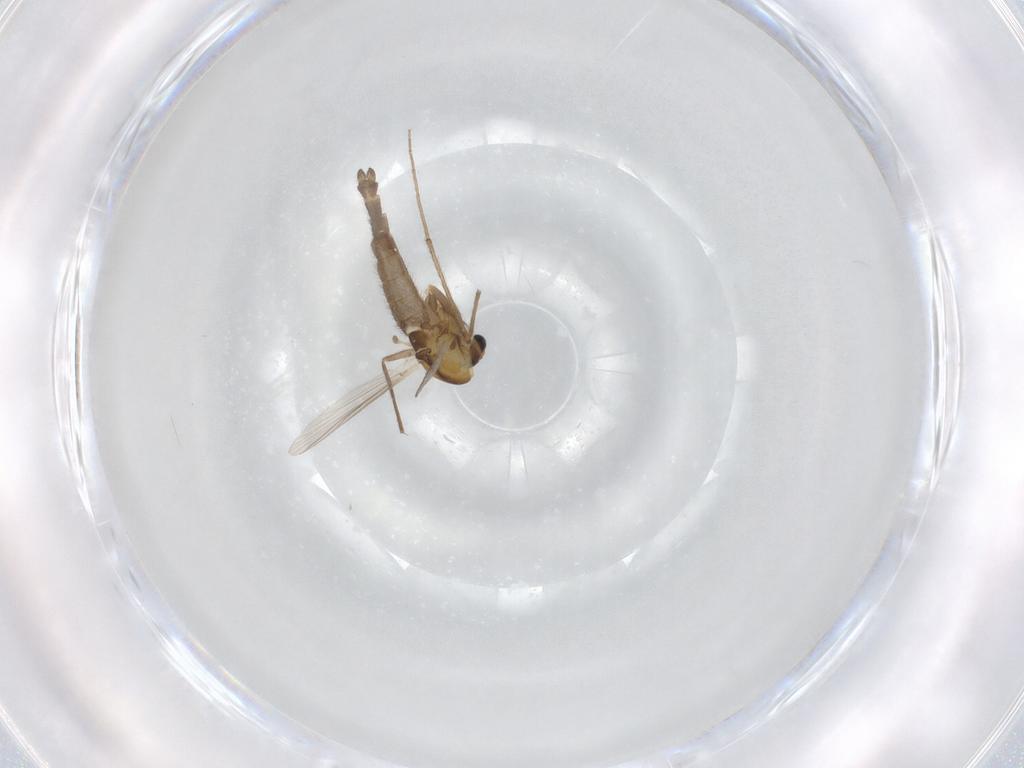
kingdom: Animalia
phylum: Arthropoda
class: Insecta
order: Diptera
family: Chironomidae
